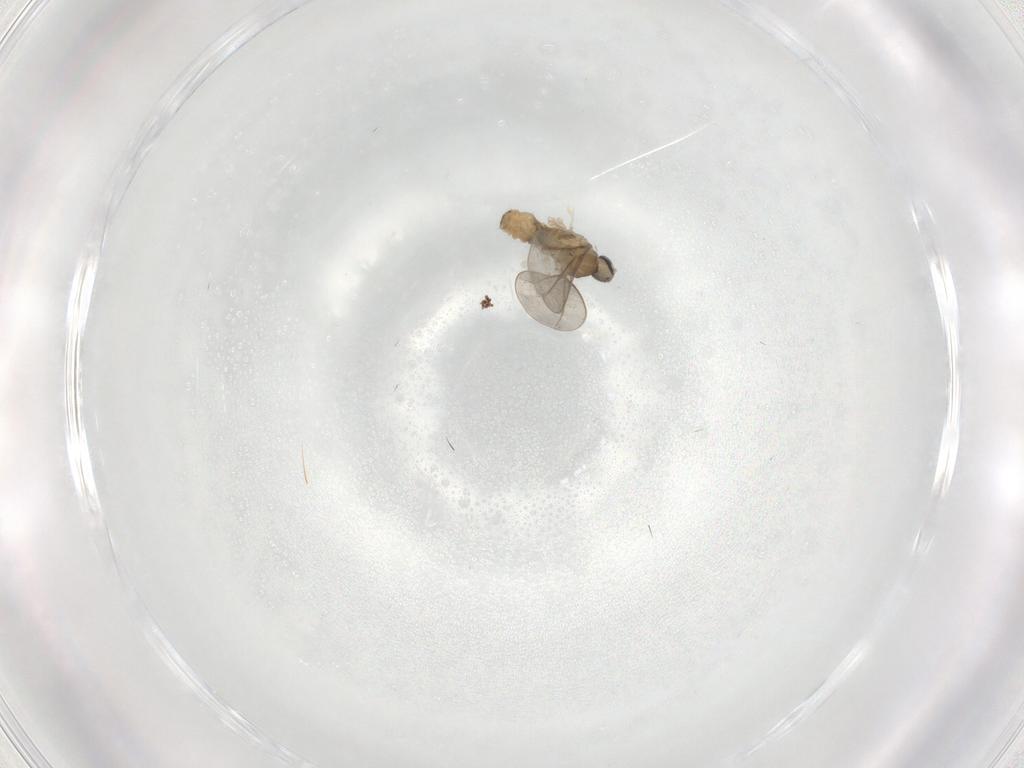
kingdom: Animalia
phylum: Arthropoda
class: Insecta
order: Diptera
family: Cecidomyiidae
